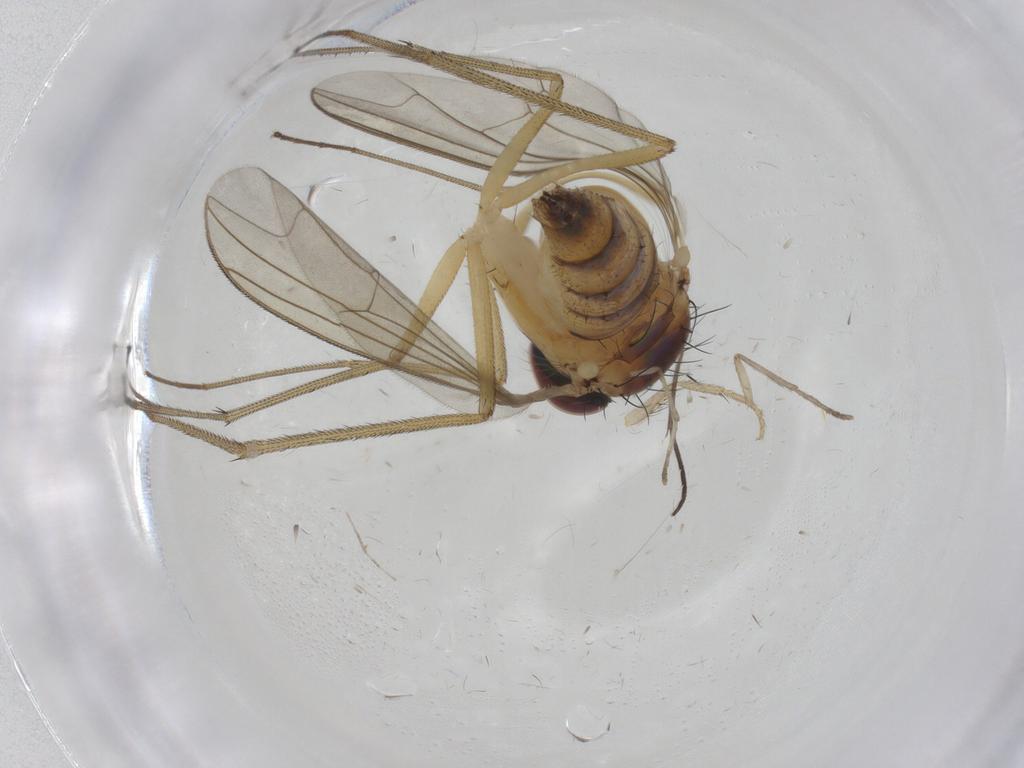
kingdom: Animalia
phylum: Arthropoda
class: Insecta
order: Diptera
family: Dolichopodidae
